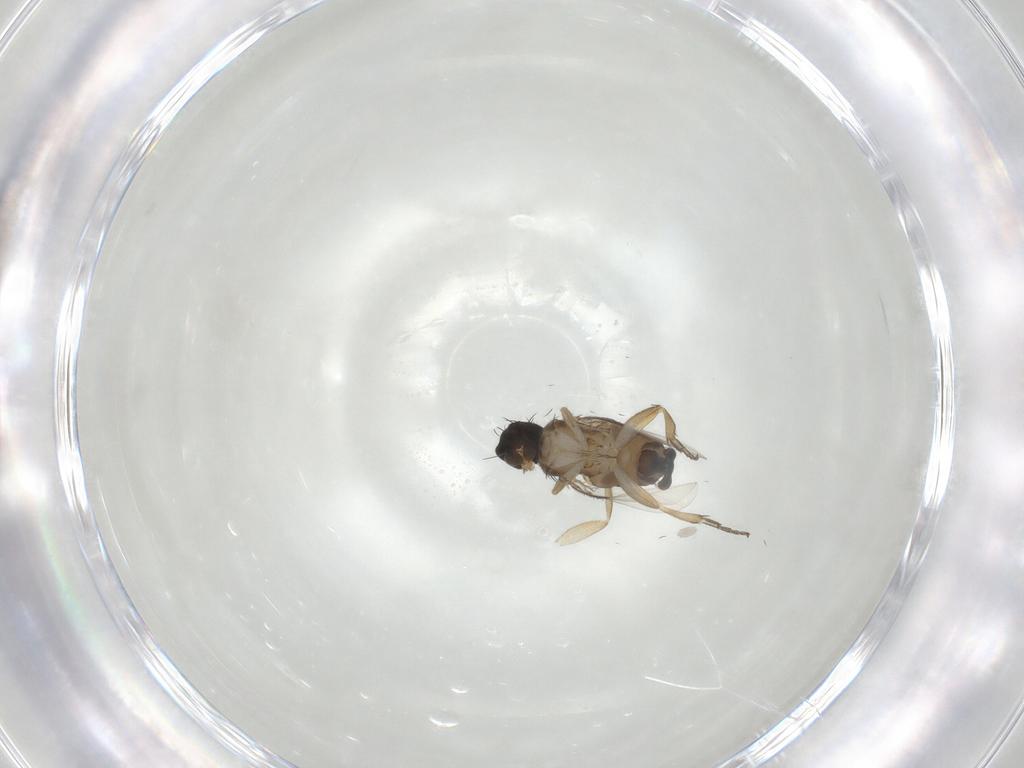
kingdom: Animalia
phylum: Arthropoda
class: Insecta
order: Diptera
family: Phoridae
